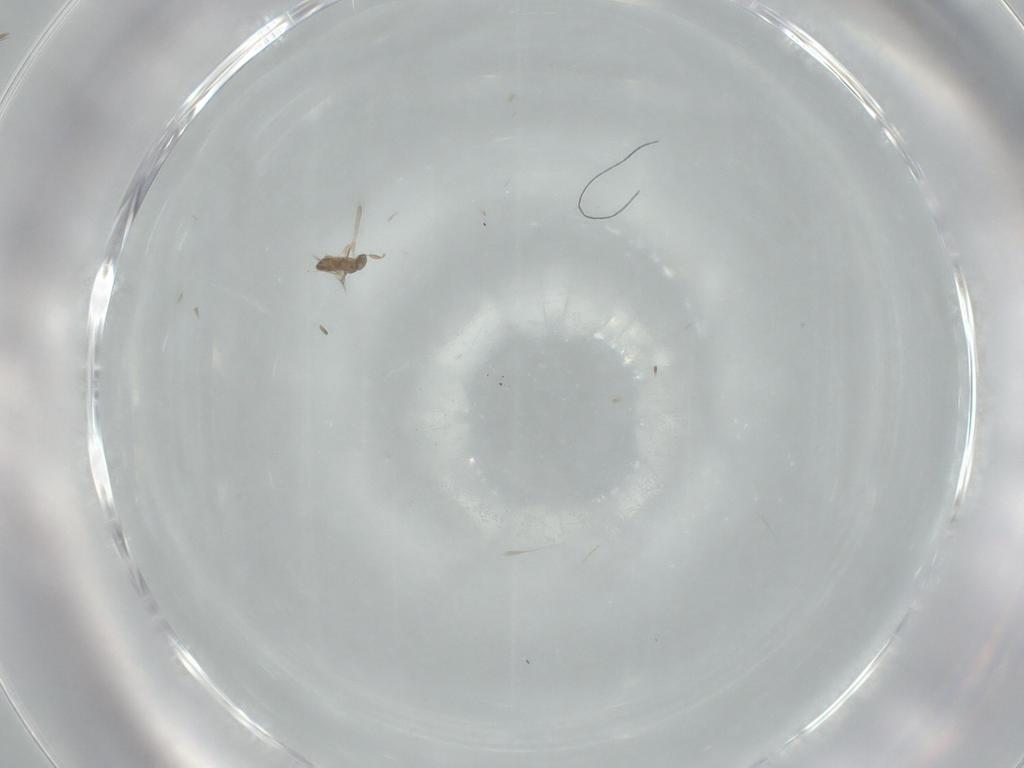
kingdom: Animalia
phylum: Arthropoda
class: Insecta
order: Hymenoptera
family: Mymaridae
